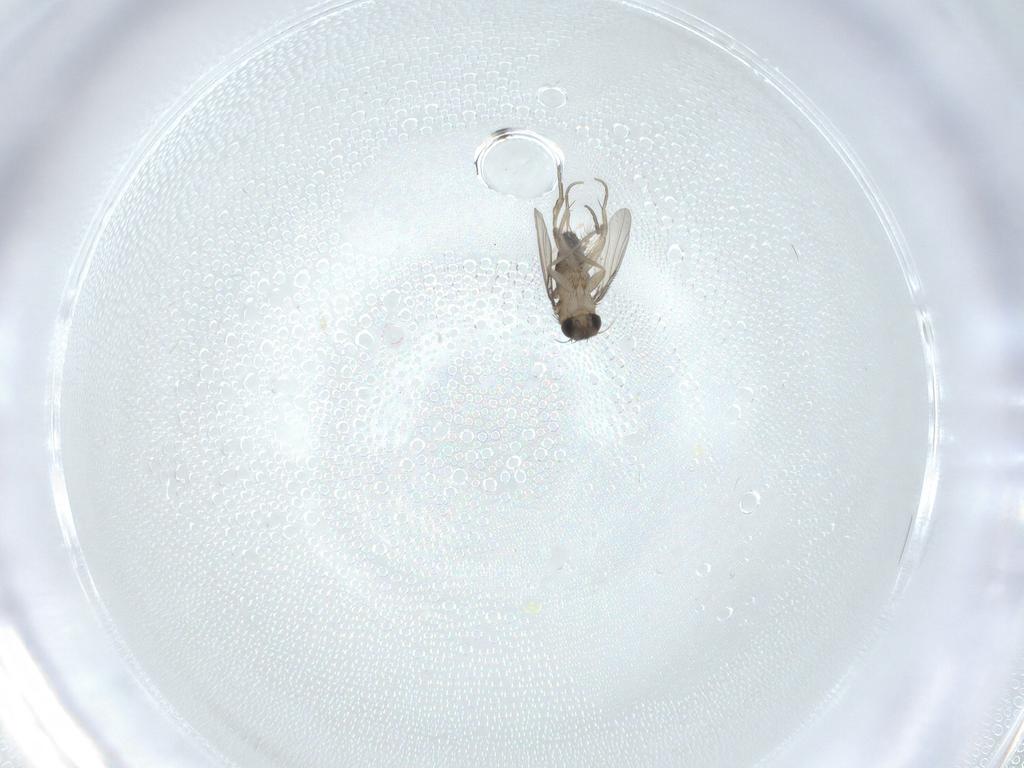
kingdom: Animalia
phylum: Arthropoda
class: Insecta
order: Diptera
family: Phoridae
